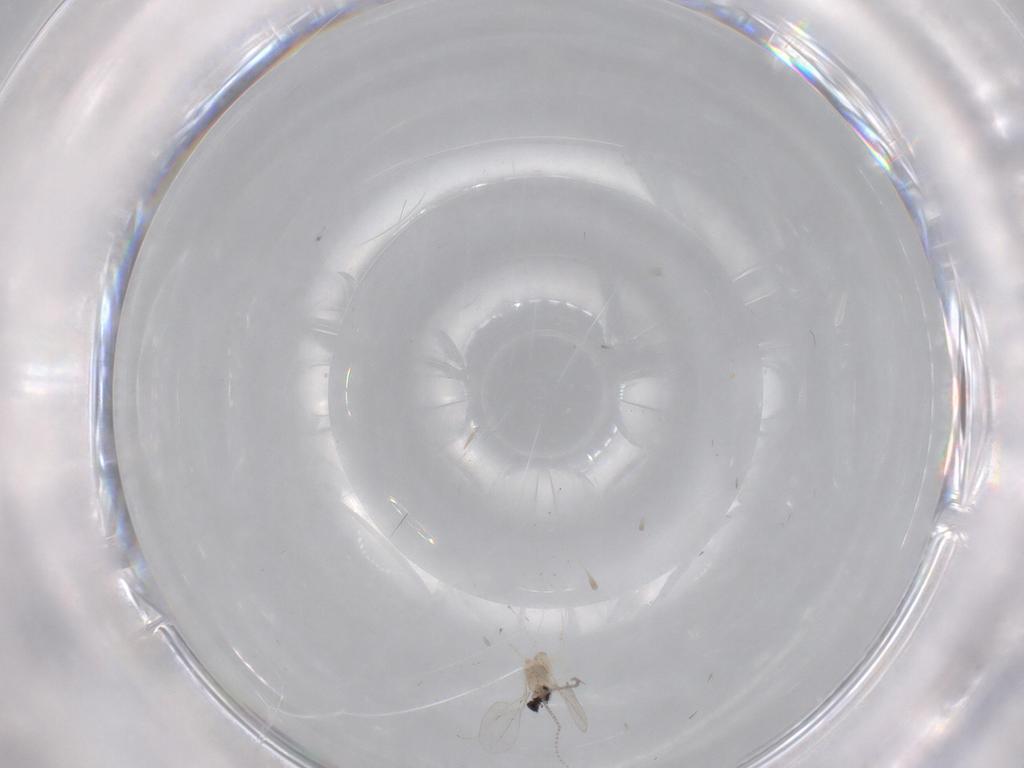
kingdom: Animalia
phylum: Arthropoda
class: Insecta
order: Diptera
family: Cecidomyiidae
